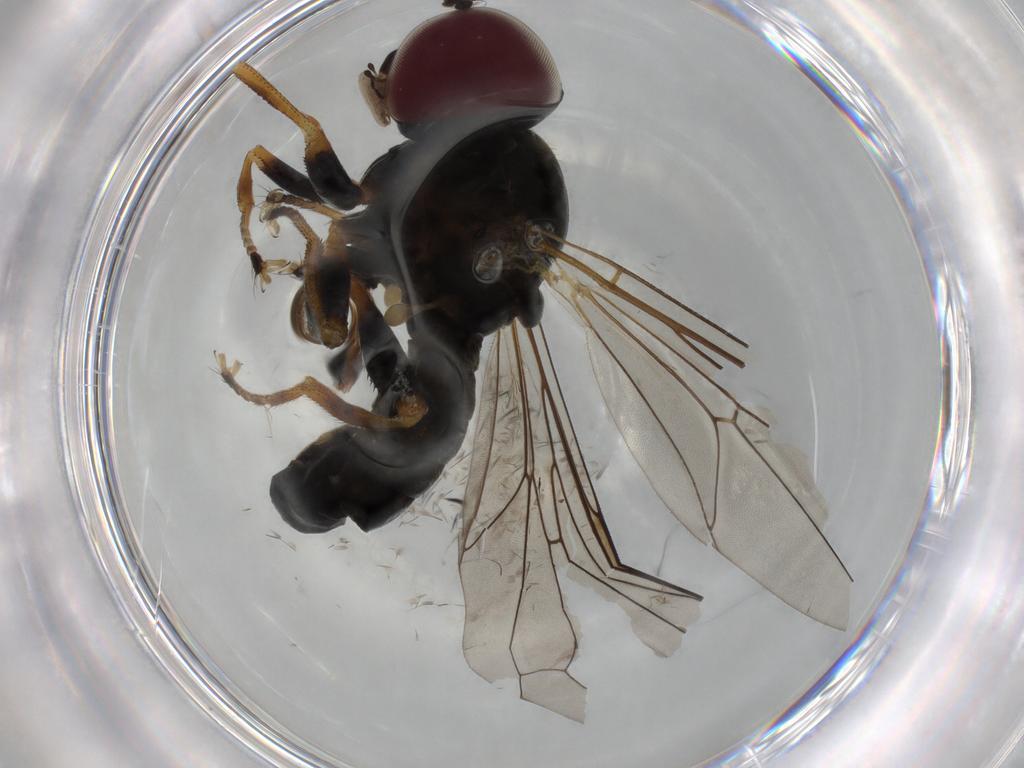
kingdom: Animalia
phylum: Arthropoda
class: Insecta
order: Diptera
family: Pipunculidae
